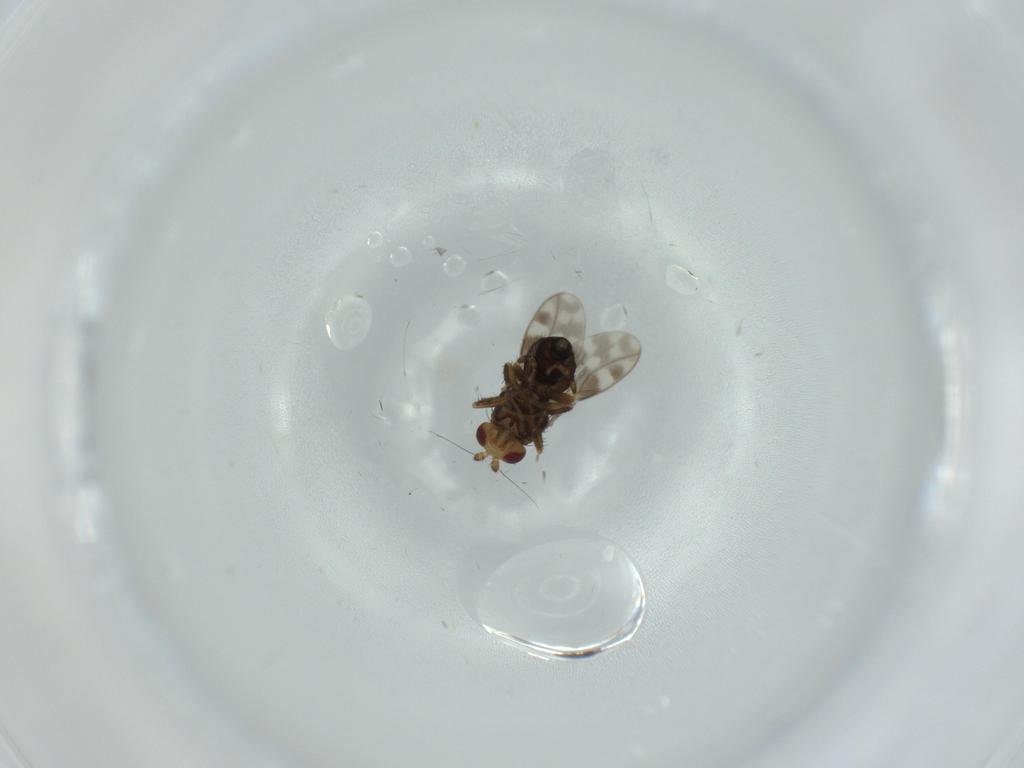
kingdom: Animalia
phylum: Arthropoda
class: Insecta
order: Diptera
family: Sphaeroceridae
